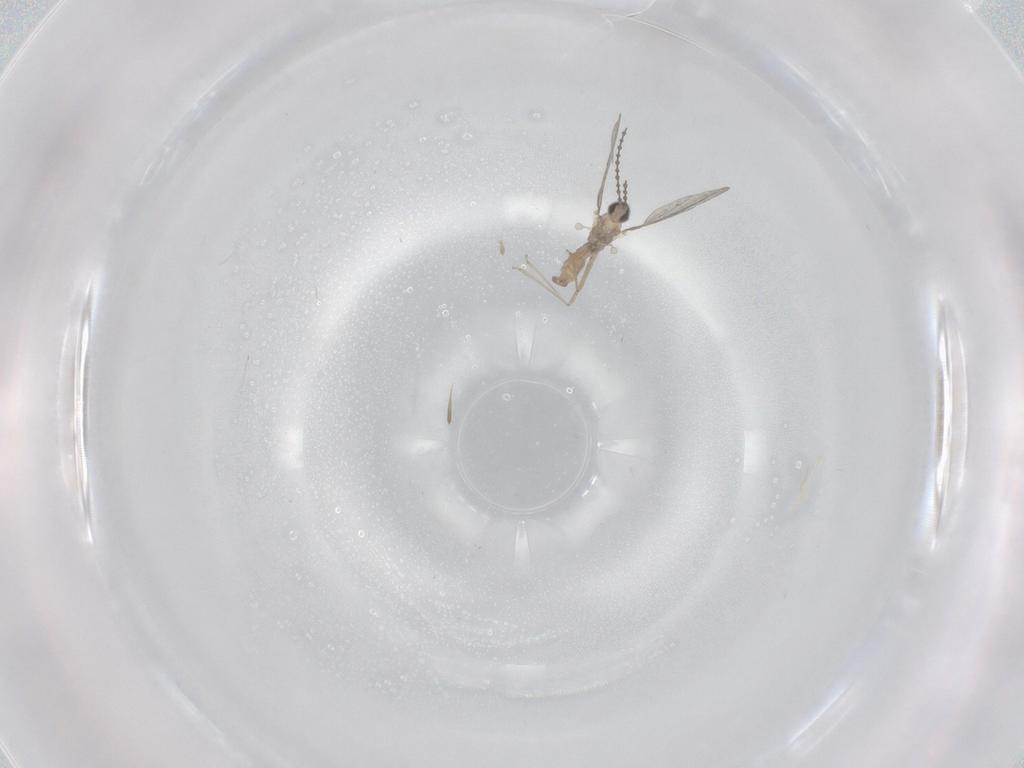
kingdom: Animalia
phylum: Arthropoda
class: Insecta
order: Diptera
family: Cecidomyiidae
